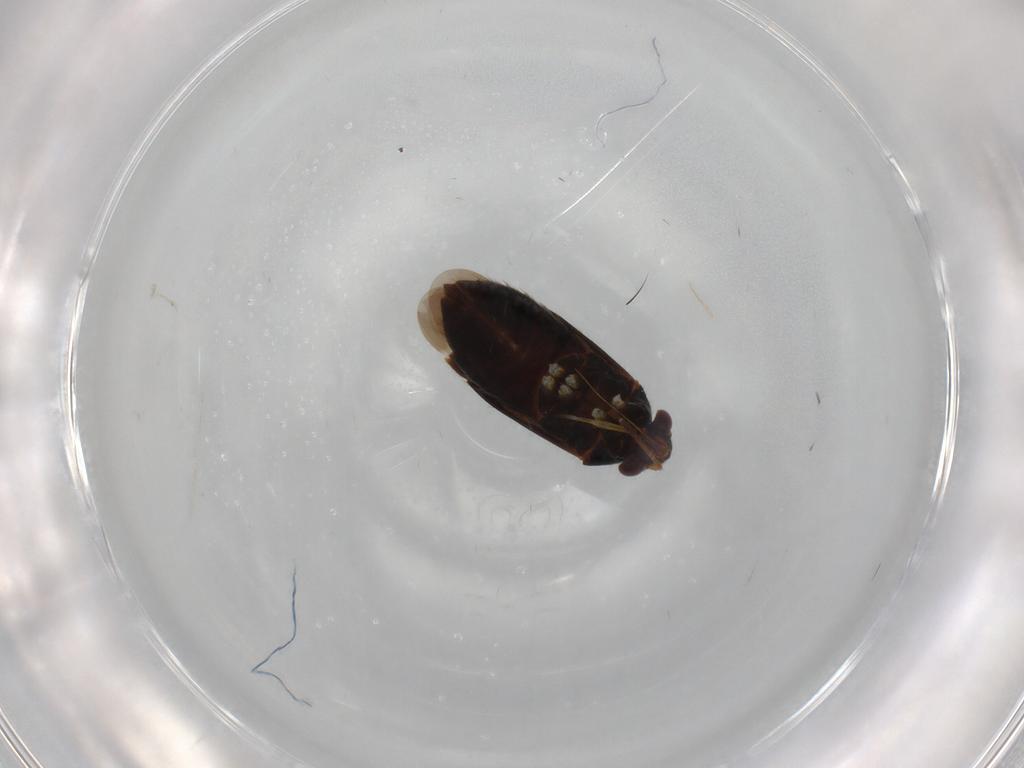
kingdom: Animalia
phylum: Arthropoda
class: Insecta
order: Hemiptera
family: Miridae
